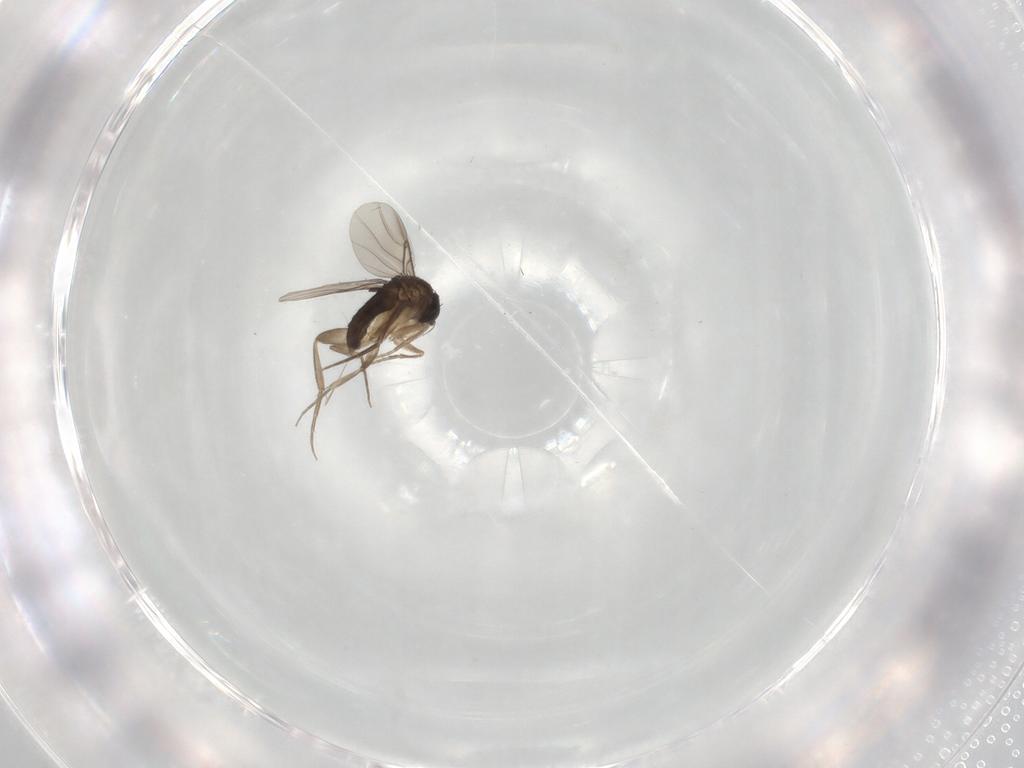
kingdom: Animalia
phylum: Arthropoda
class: Insecta
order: Diptera
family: Phoridae
